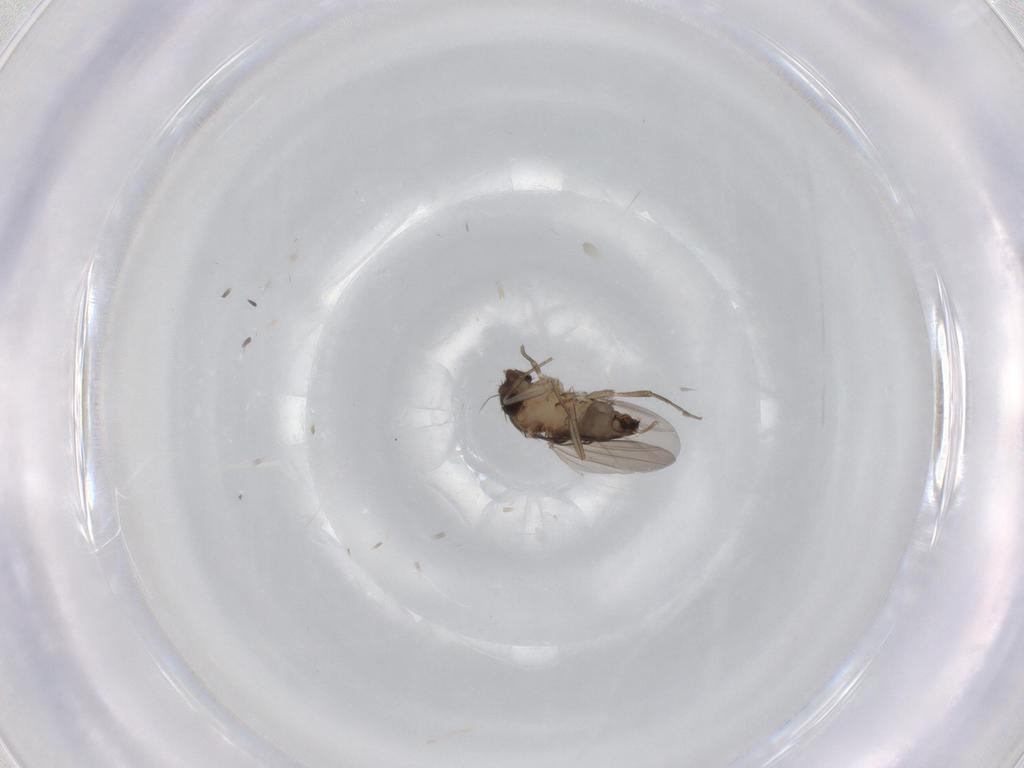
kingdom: Animalia
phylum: Arthropoda
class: Insecta
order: Diptera
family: Phoridae
